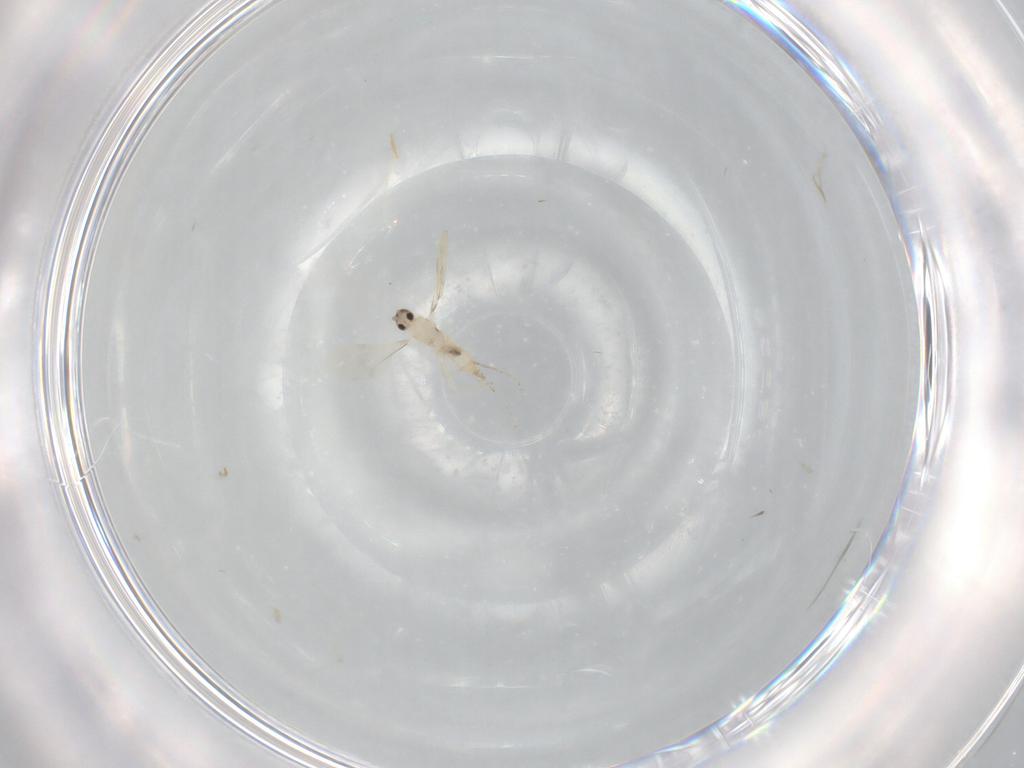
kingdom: Animalia
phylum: Arthropoda
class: Insecta
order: Diptera
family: Cecidomyiidae
